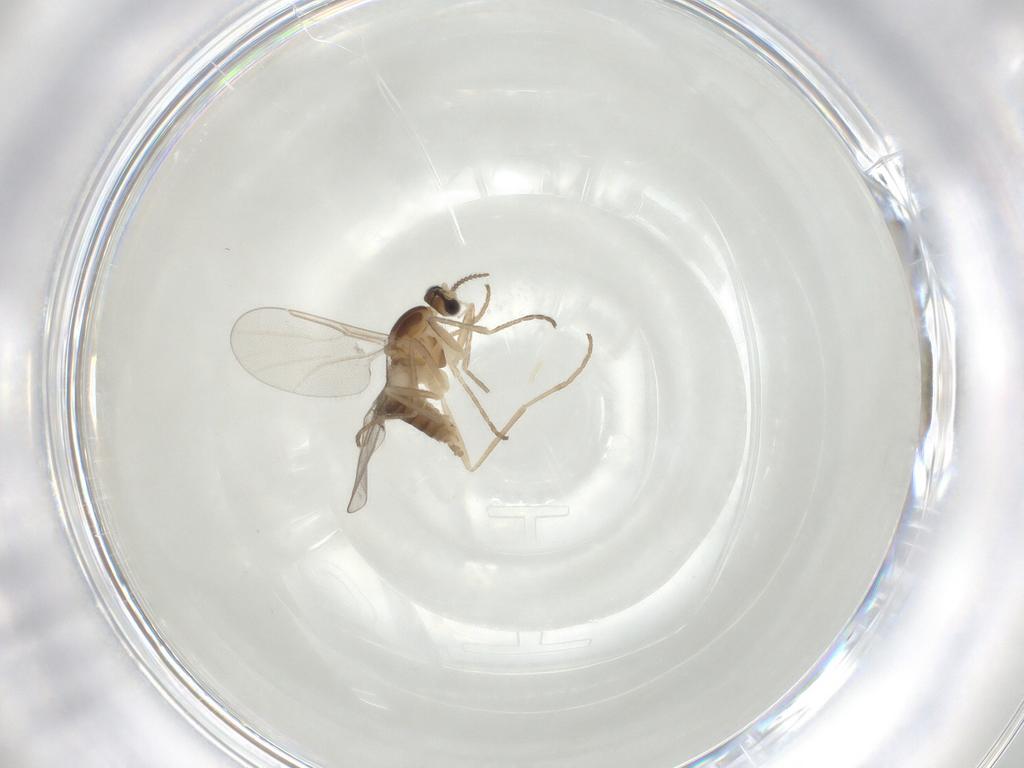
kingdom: Animalia
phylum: Arthropoda
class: Insecta
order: Diptera
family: Cecidomyiidae
